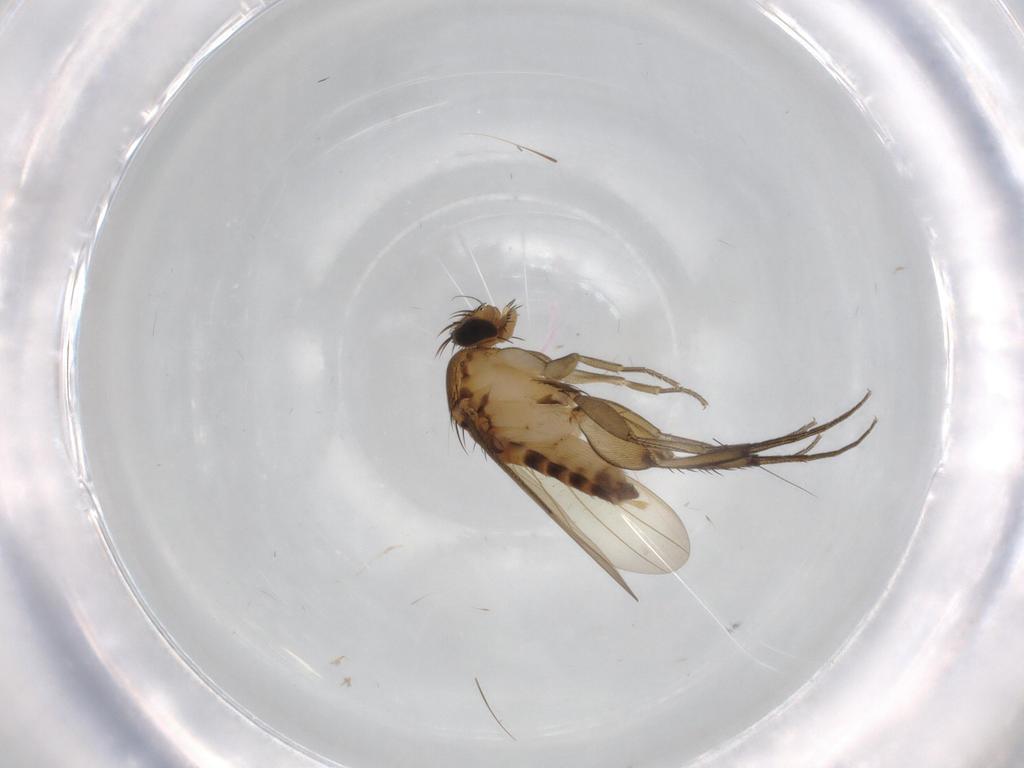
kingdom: Animalia
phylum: Arthropoda
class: Insecta
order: Diptera
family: Phoridae
